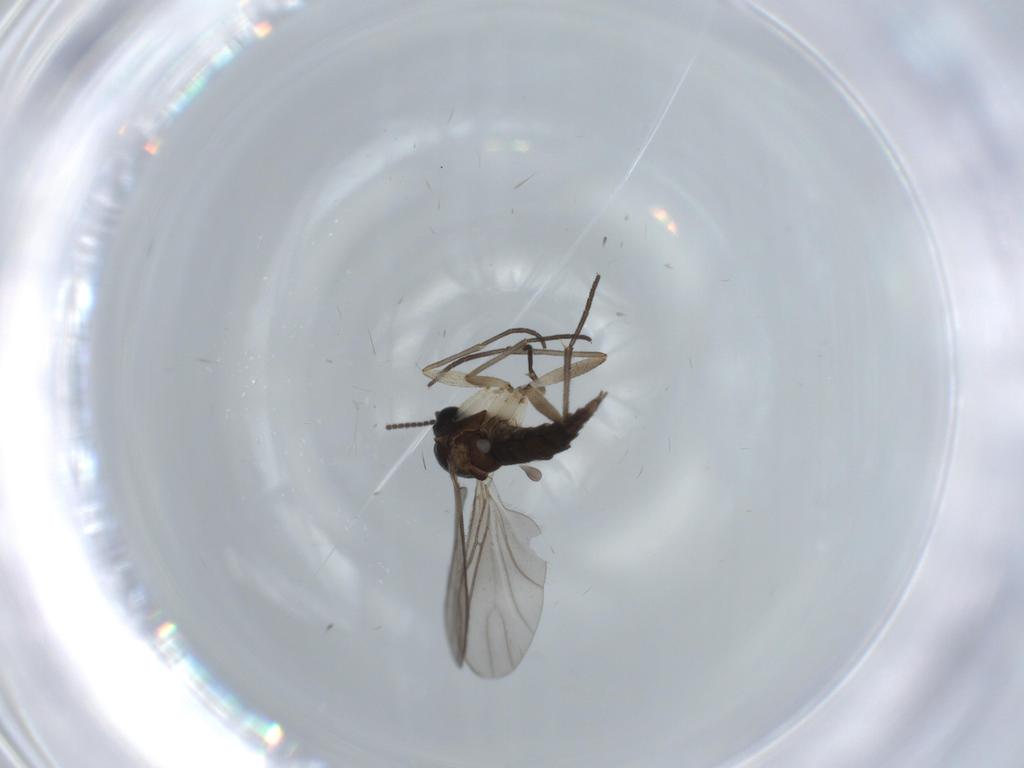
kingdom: Animalia
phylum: Arthropoda
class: Insecta
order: Diptera
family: Sciaridae
